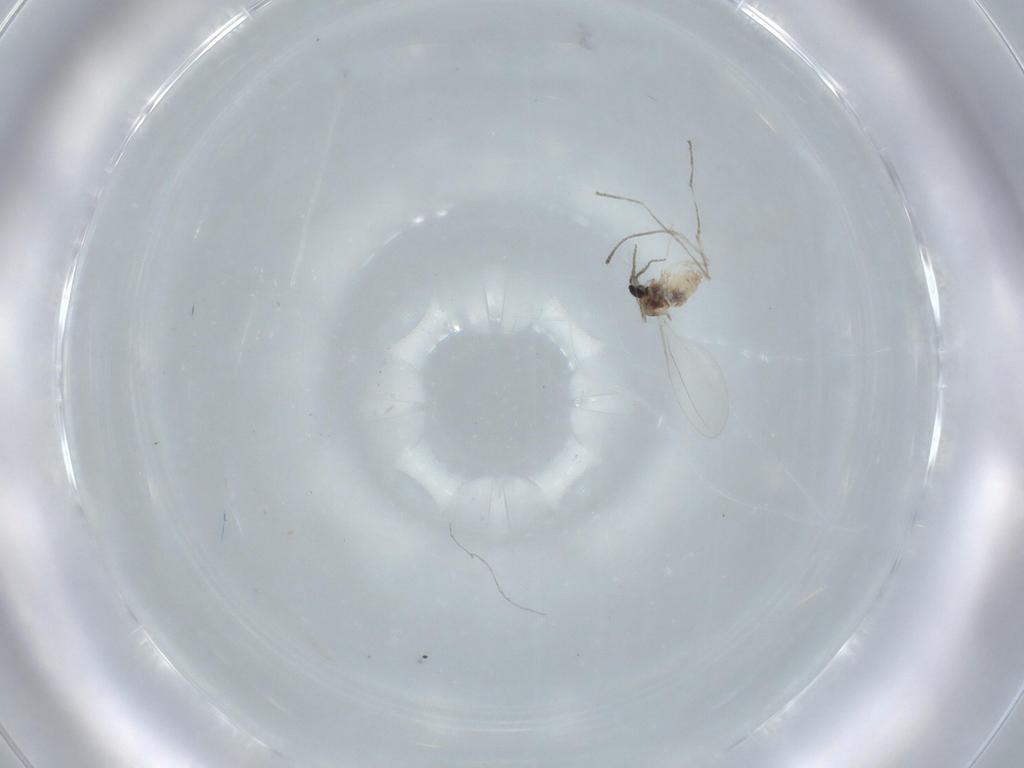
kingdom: Animalia
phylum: Arthropoda
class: Insecta
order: Diptera
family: Cecidomyiidae
